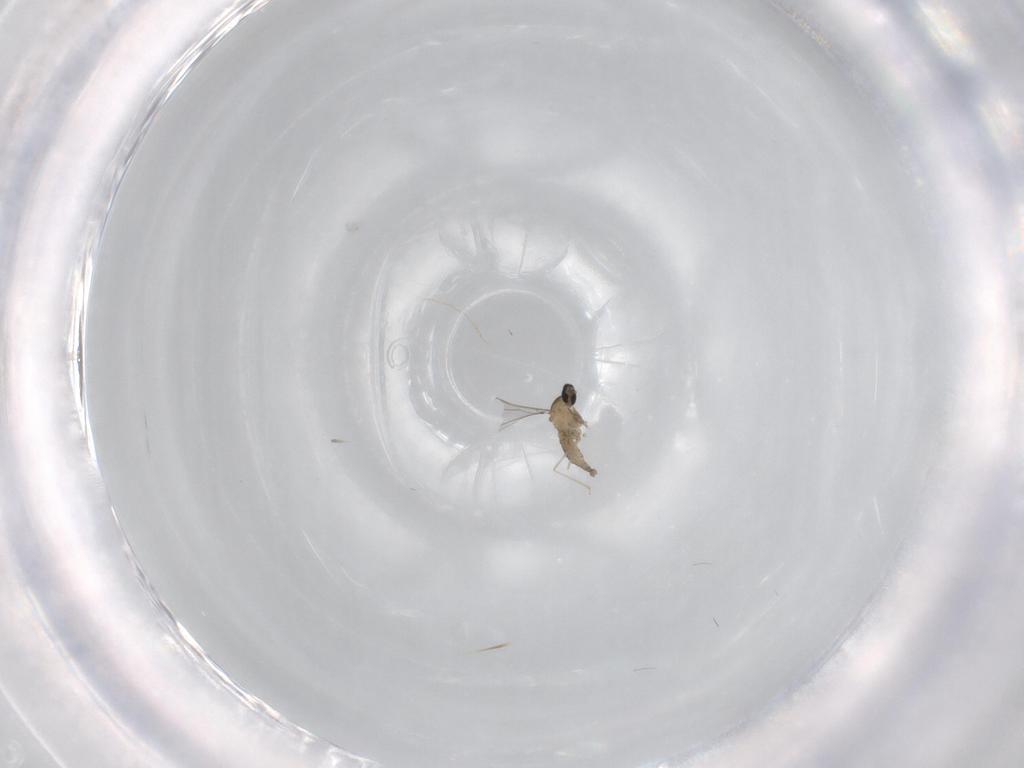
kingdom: Animalia
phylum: Arthropoda
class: Insecta
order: Diptera
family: Cecidomyiidae
